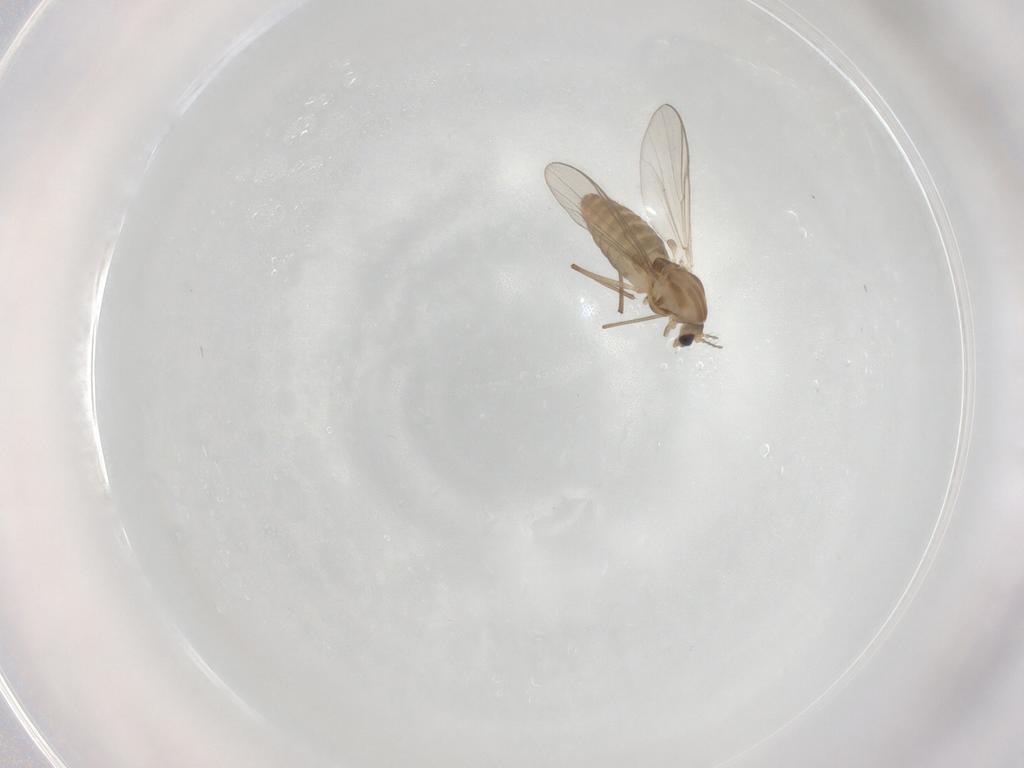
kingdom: Animalia
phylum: Arthropoda
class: Insecta
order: Diptera
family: Chironomidae
